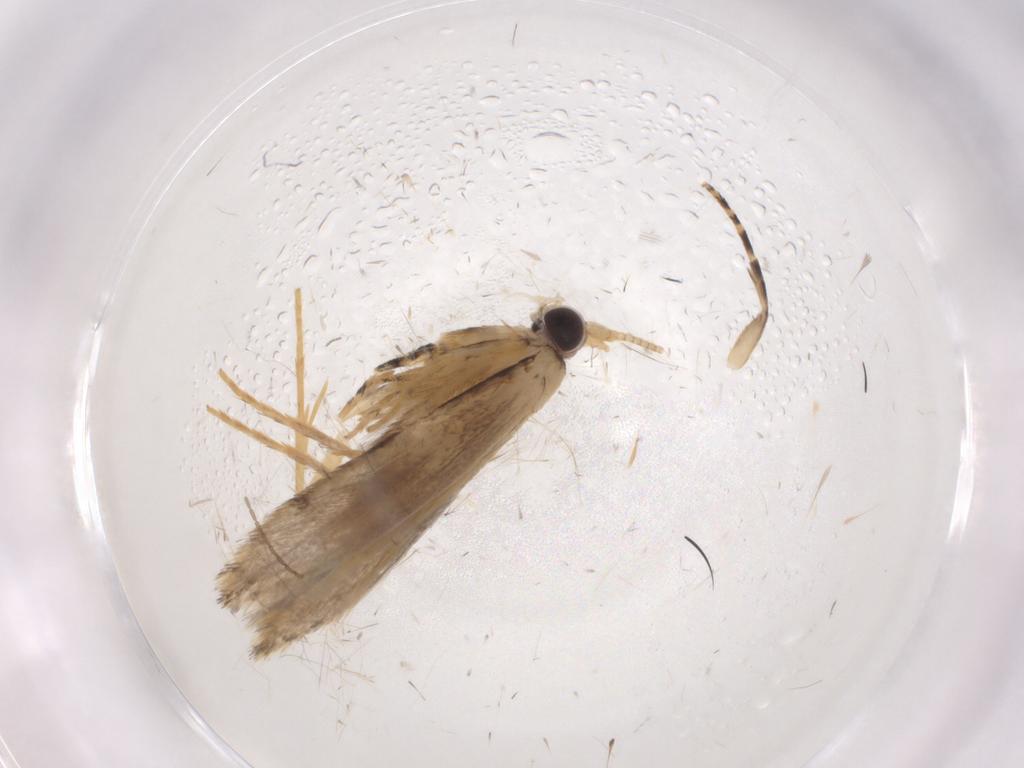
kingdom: Animalia
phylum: Arthropoda
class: Insecta
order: Lepidoptera
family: Tineidae
